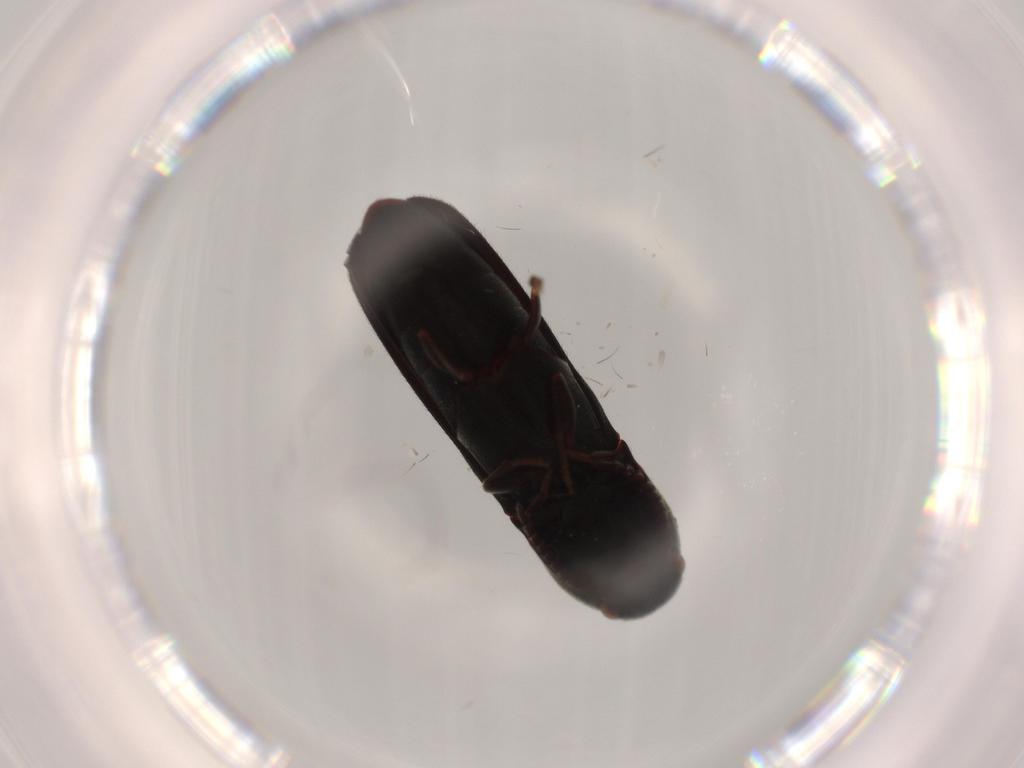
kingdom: Animalia
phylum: Arthropoda
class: Insecta
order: Coleoptera
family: Eucnemidae
